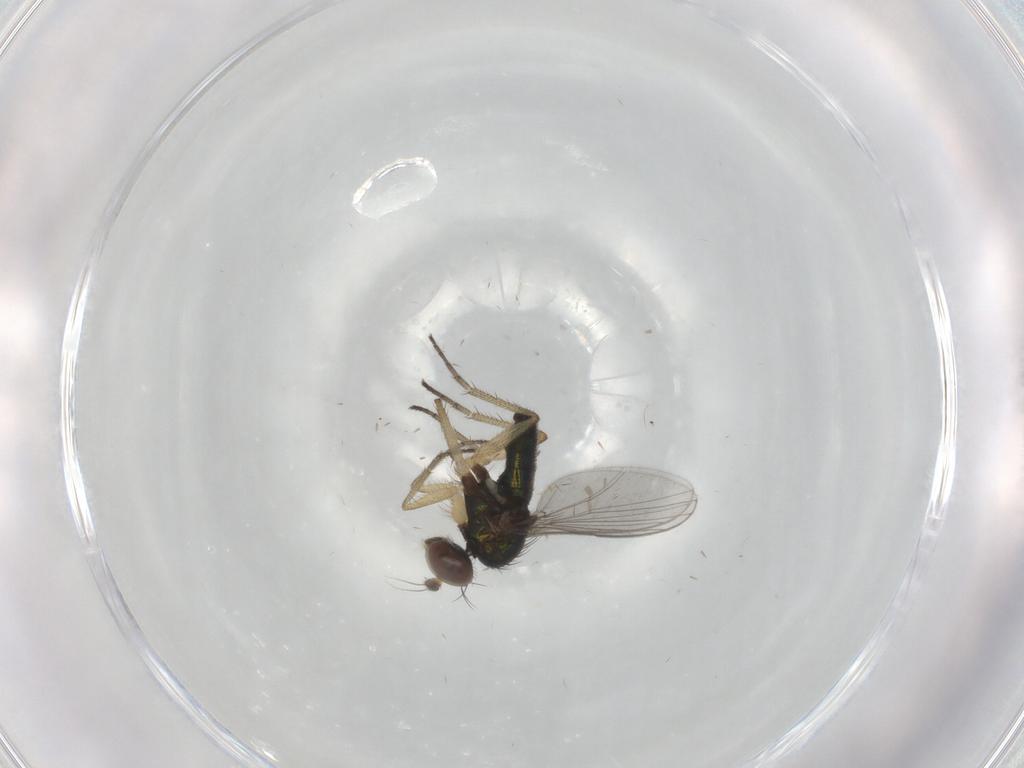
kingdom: Animalia
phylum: Arthropoda
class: Insecta
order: Diptera
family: Dolichopodidae
